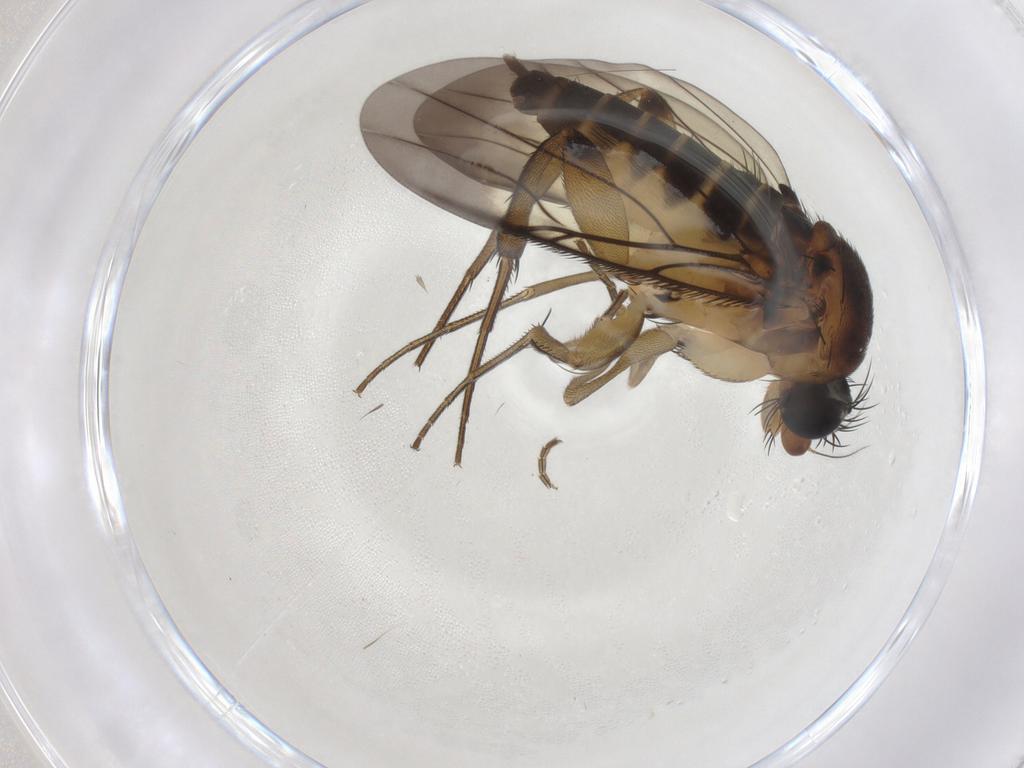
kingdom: Animalia
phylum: Arthropoda
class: Insecta
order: Diptera
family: Phoridae
